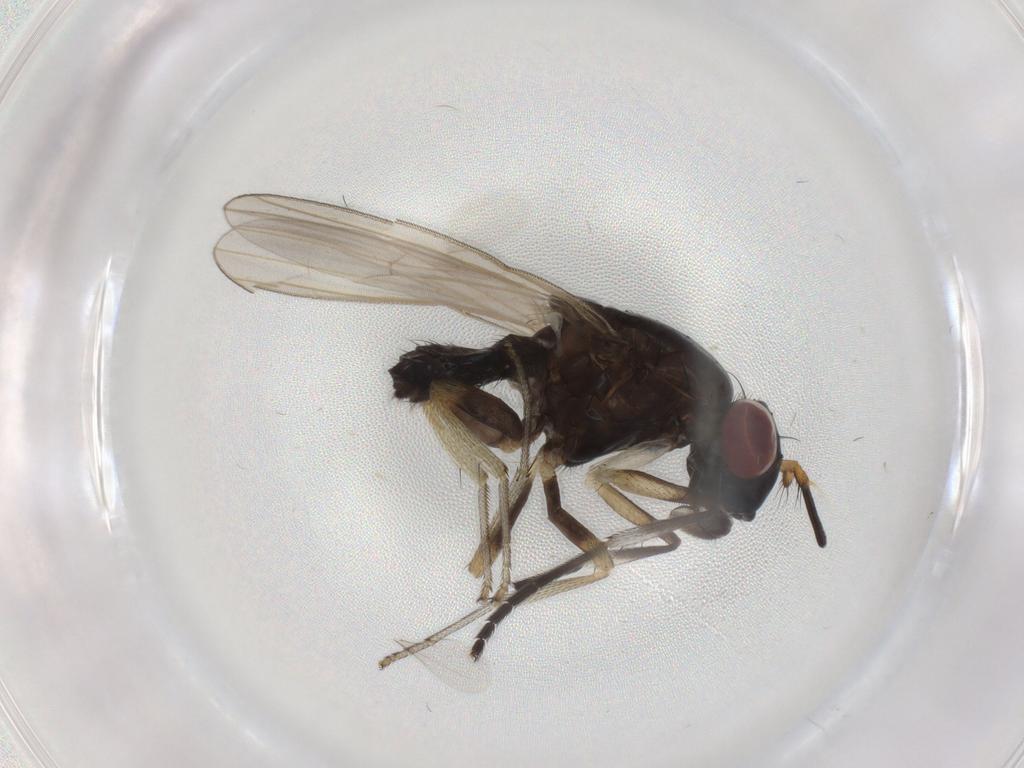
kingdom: Animalia
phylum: Arthropoda
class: Insecta
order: Diptera
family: Lauxaniidae
